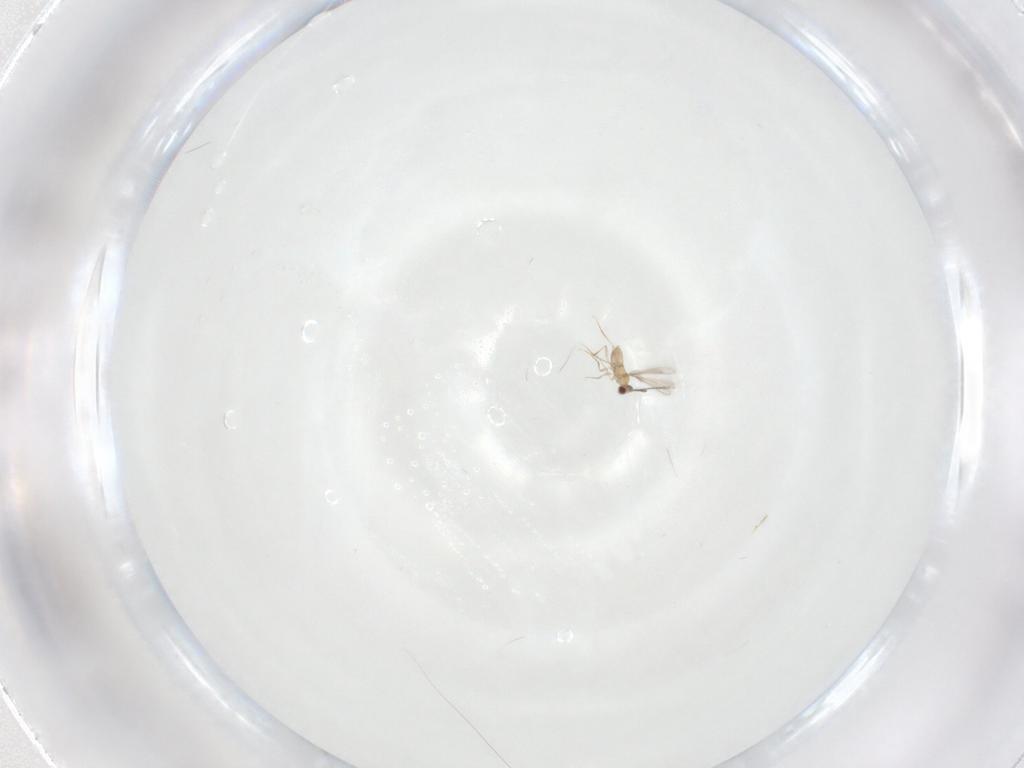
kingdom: Animalia
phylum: Arthropoda
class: Insecta
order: Hymenoptera
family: Mymaridae
